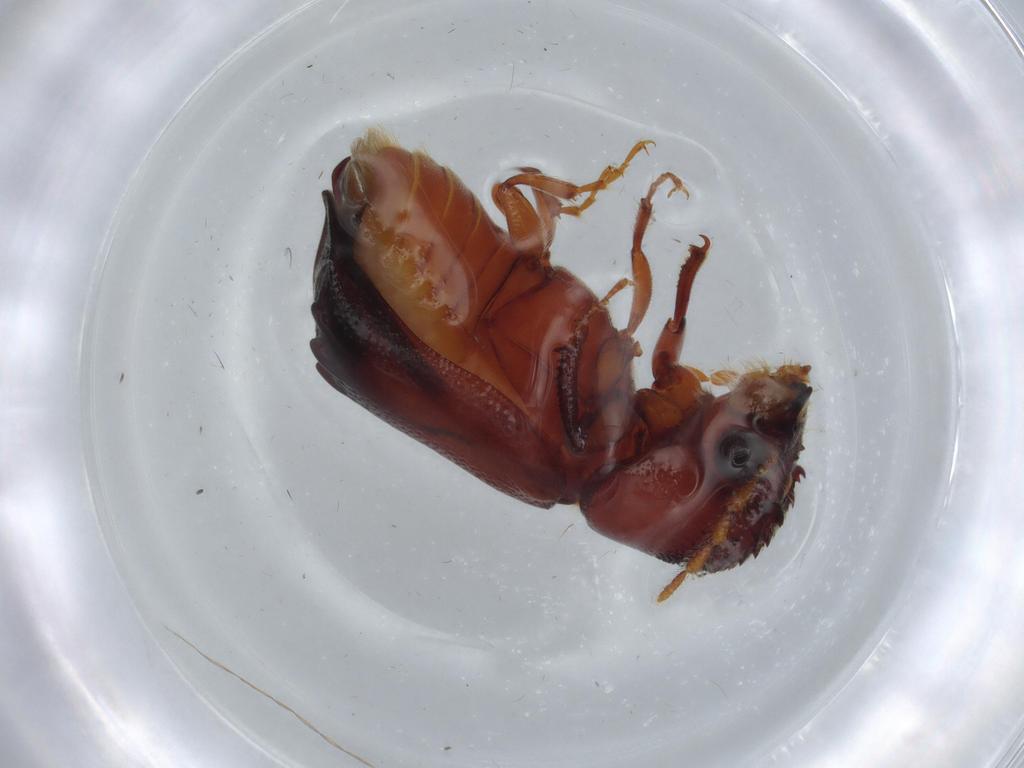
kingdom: Animalia
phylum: Arthropoda
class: Insecta
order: Coleoptera
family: Bostrichidae
